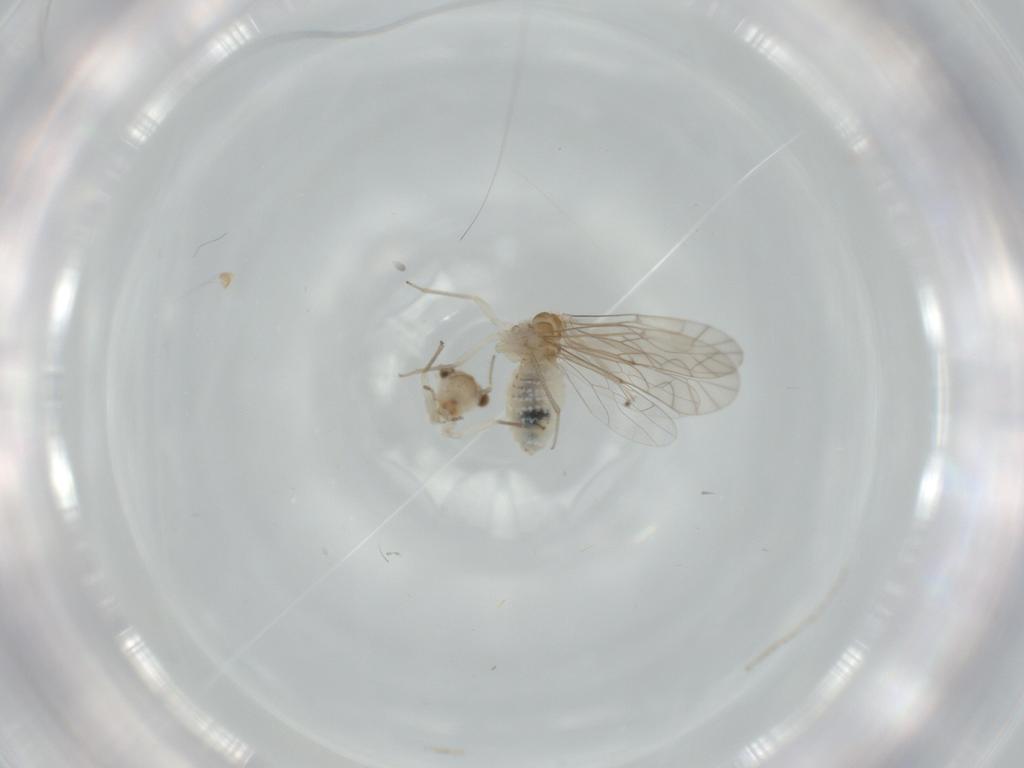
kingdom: Animalia
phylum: Arthropoda
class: Insecta
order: Psocodea
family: Lachesillidae
